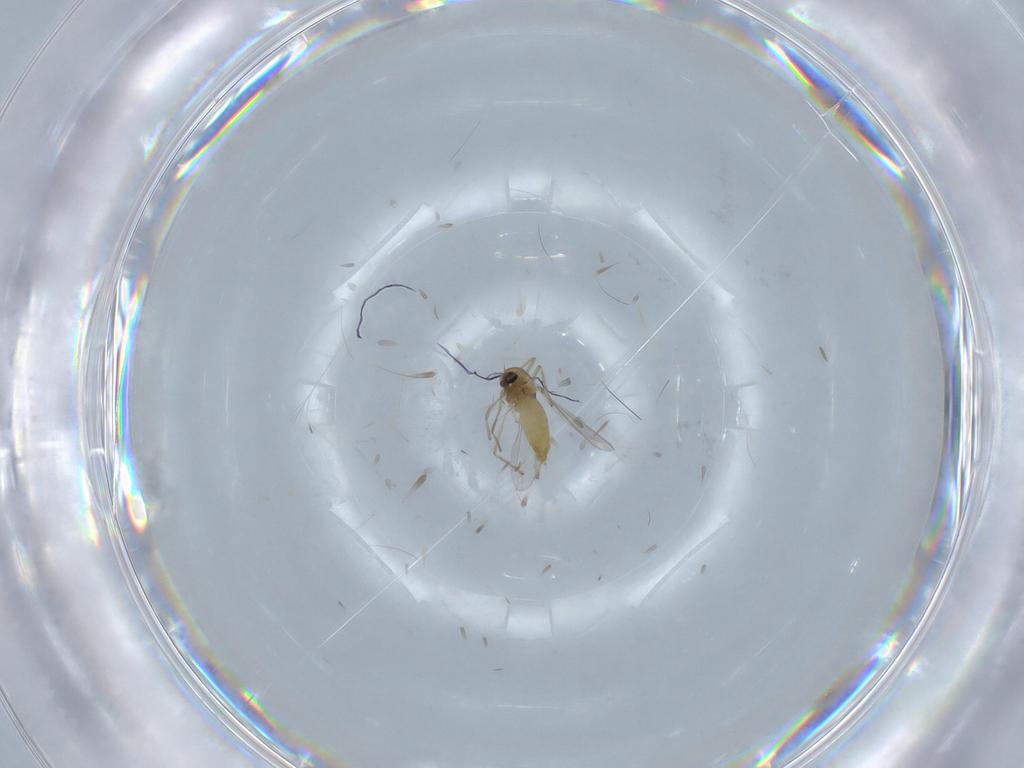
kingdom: Animalia
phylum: Arthropoda
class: Insecta
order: Diptera
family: Chironomidae
